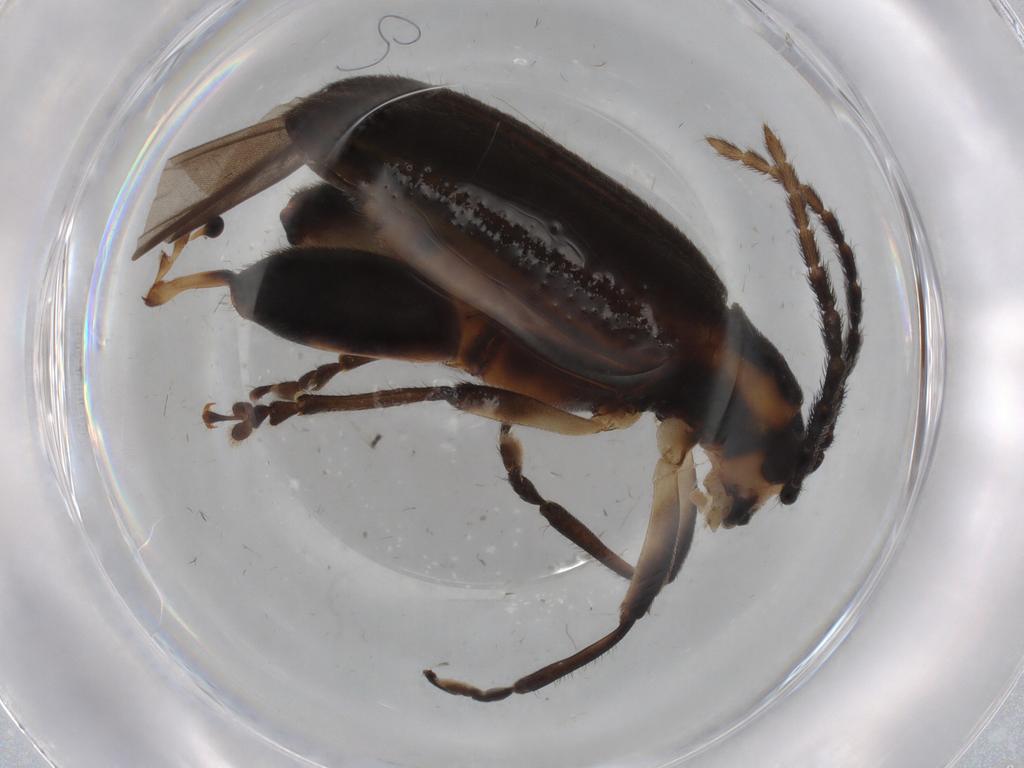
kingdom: Animalia
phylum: Arthropoda
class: Insecta
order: Coleoptera
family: Chrysomelidae
